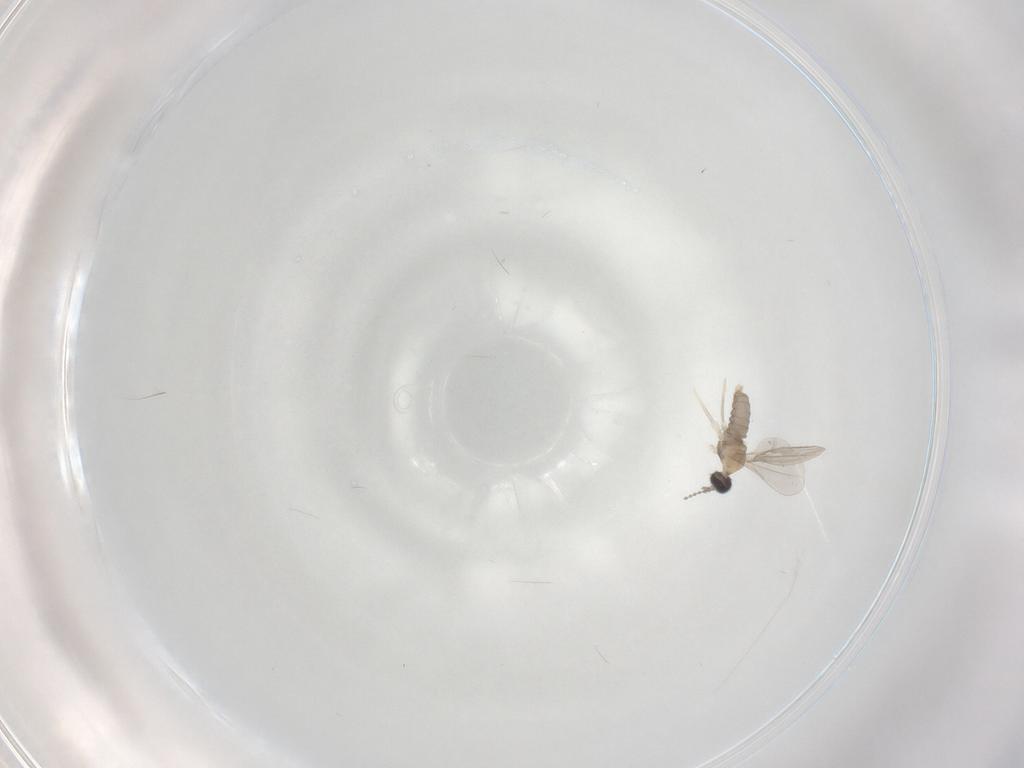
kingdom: Animalia
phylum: Arthropoda
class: Insecta
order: Diptera
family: Cecidomyiidae
